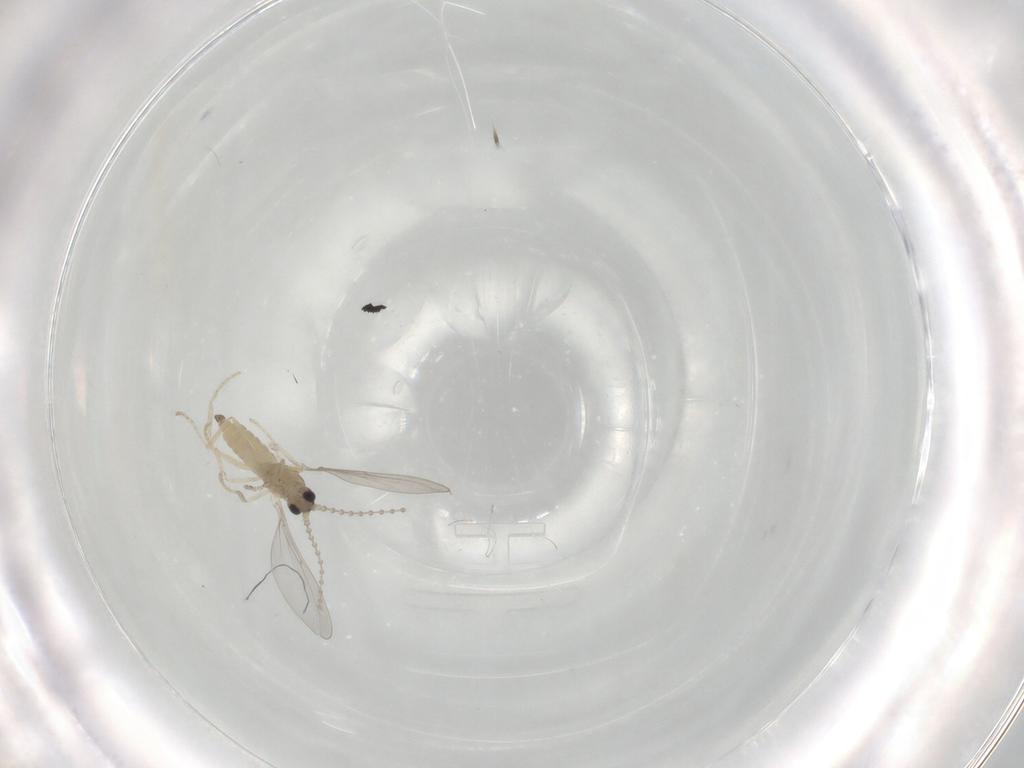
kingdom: Animalia
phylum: Arthropoda
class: Insecta
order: Diptera
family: Cecidomyiidae
